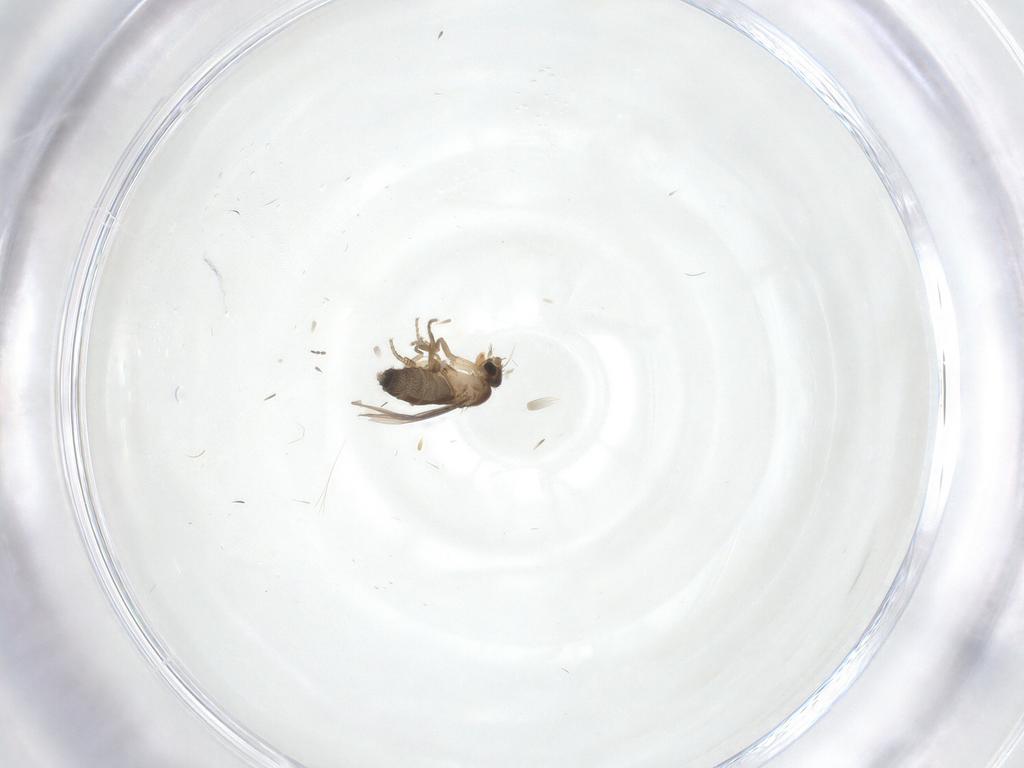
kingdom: Animalia
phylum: Arthropoda
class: Insecta
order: Diptera
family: Phoridae
